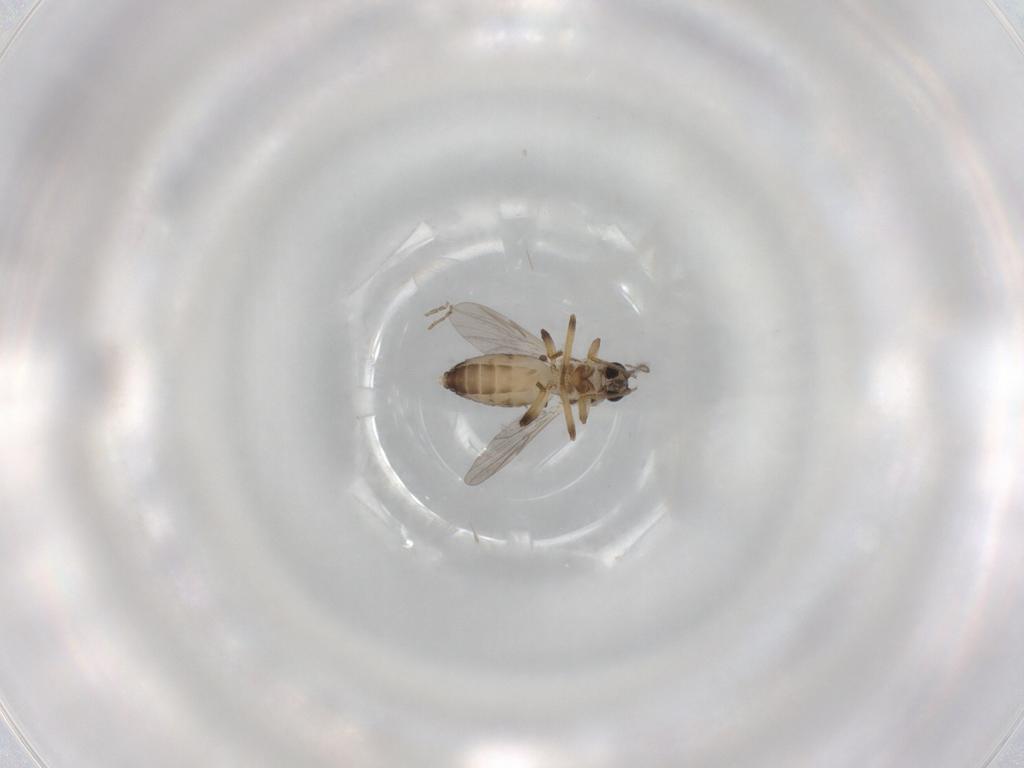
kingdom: Animalia
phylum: Arthropoda
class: Insecta
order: Diptera
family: Ceratopogonidae
